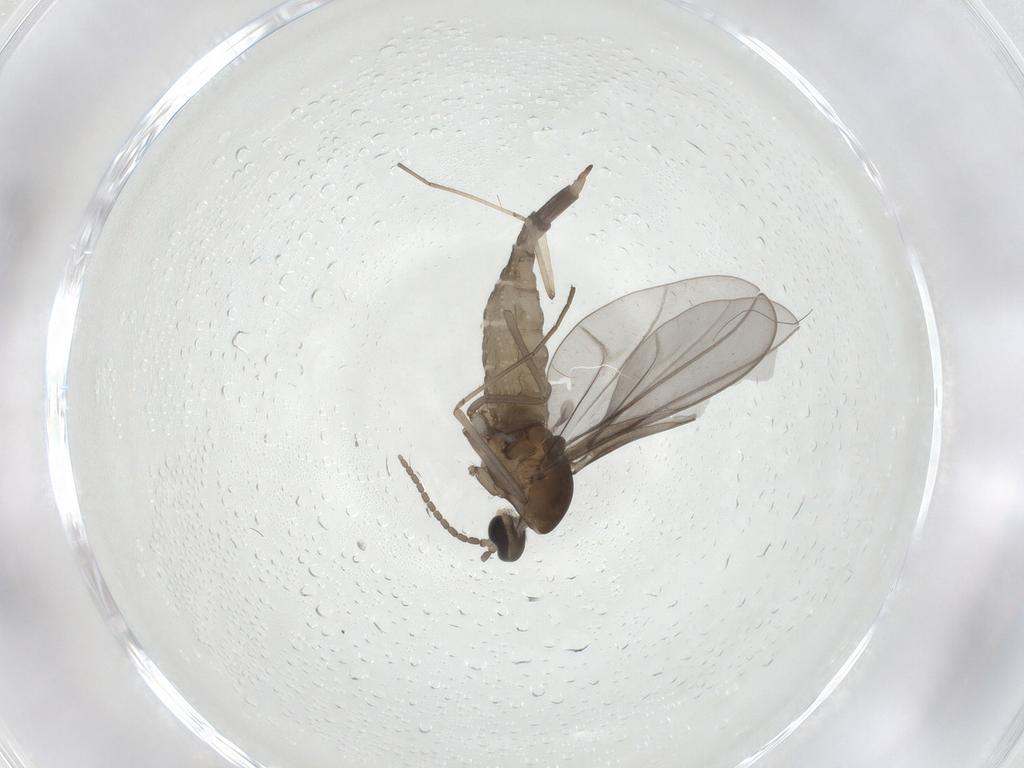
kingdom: Animalia
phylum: Arthropoda
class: Insecta
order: Diptera
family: Cecidomyiidae
